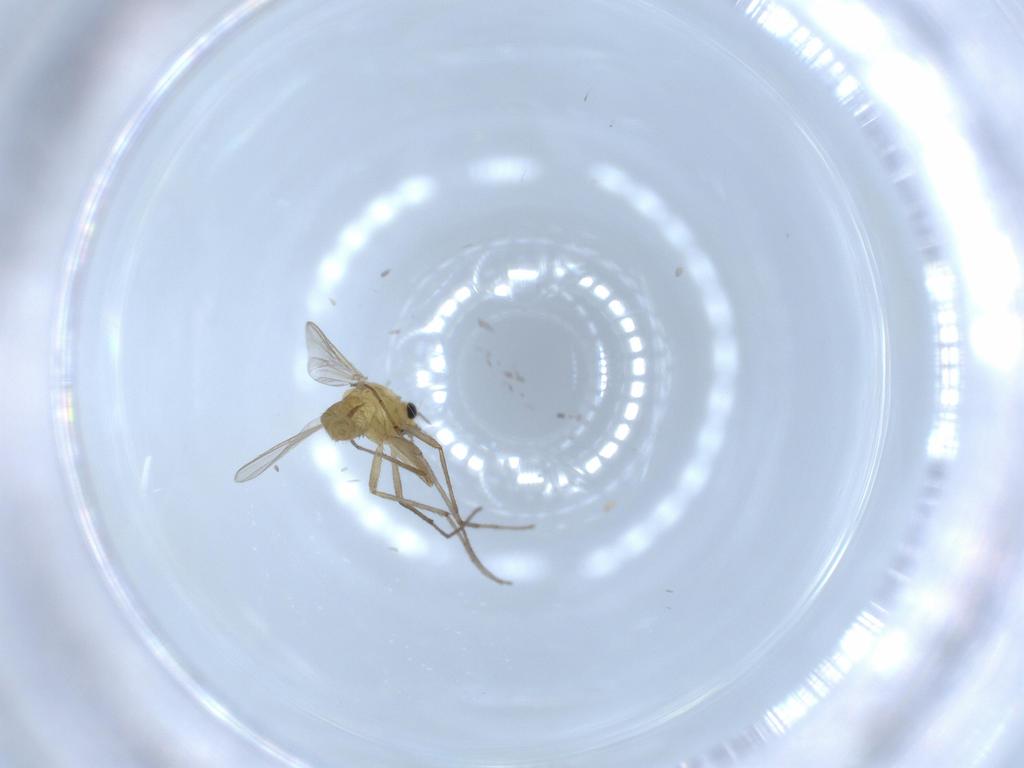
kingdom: Animalia
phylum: Arthropoda
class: Insecta
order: Diptera
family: Chironomidae
